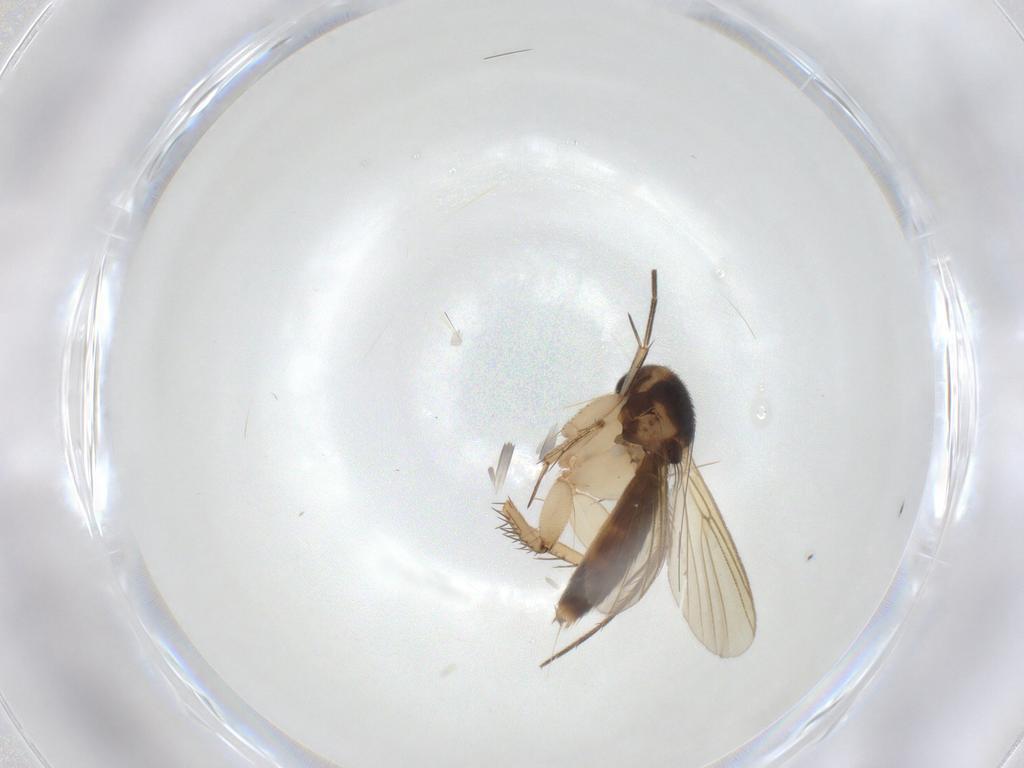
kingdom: Animalia
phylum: Arthropoda
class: Insecta
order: Diptera
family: Mycetophilidae
